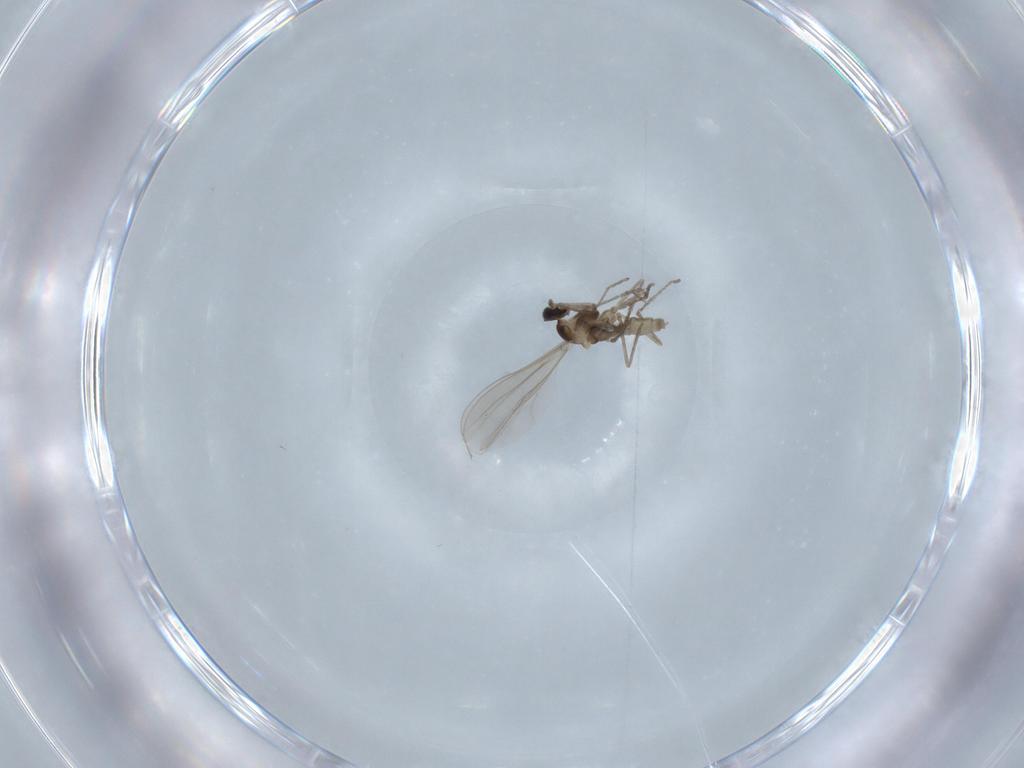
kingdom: Animalia
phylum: Arthropoda
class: Insecta
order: Diptera
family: Cecidomyiidae
